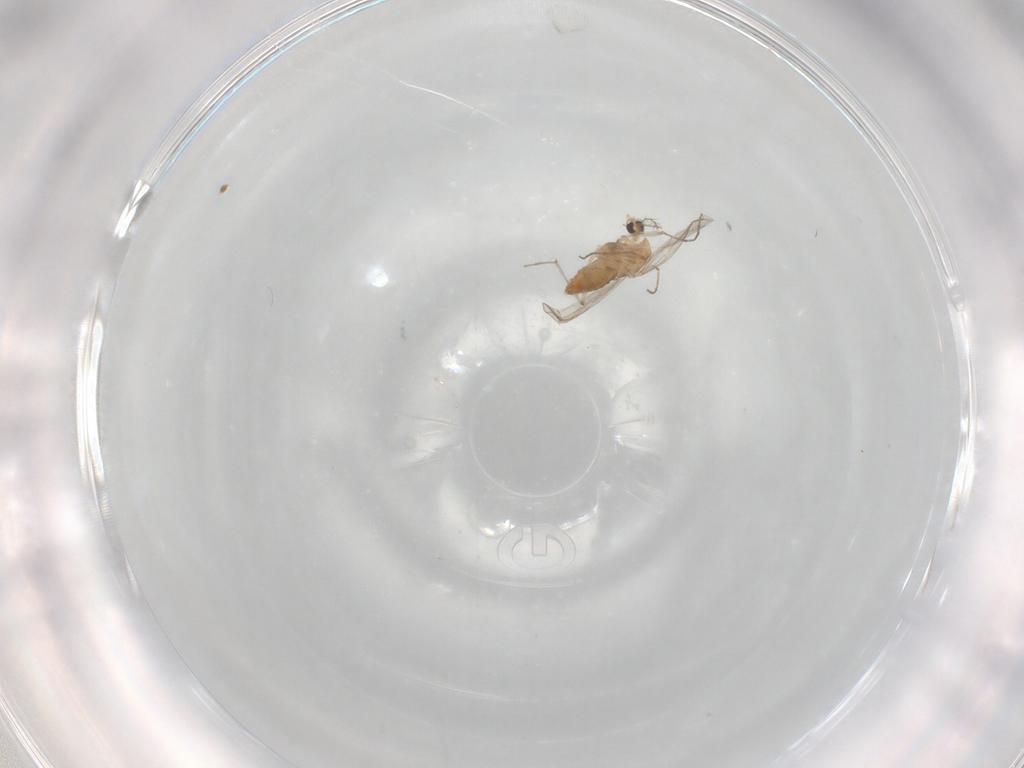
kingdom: Animalia
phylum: Arthropoda
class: Insecta
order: Diptera
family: Chironomidae
